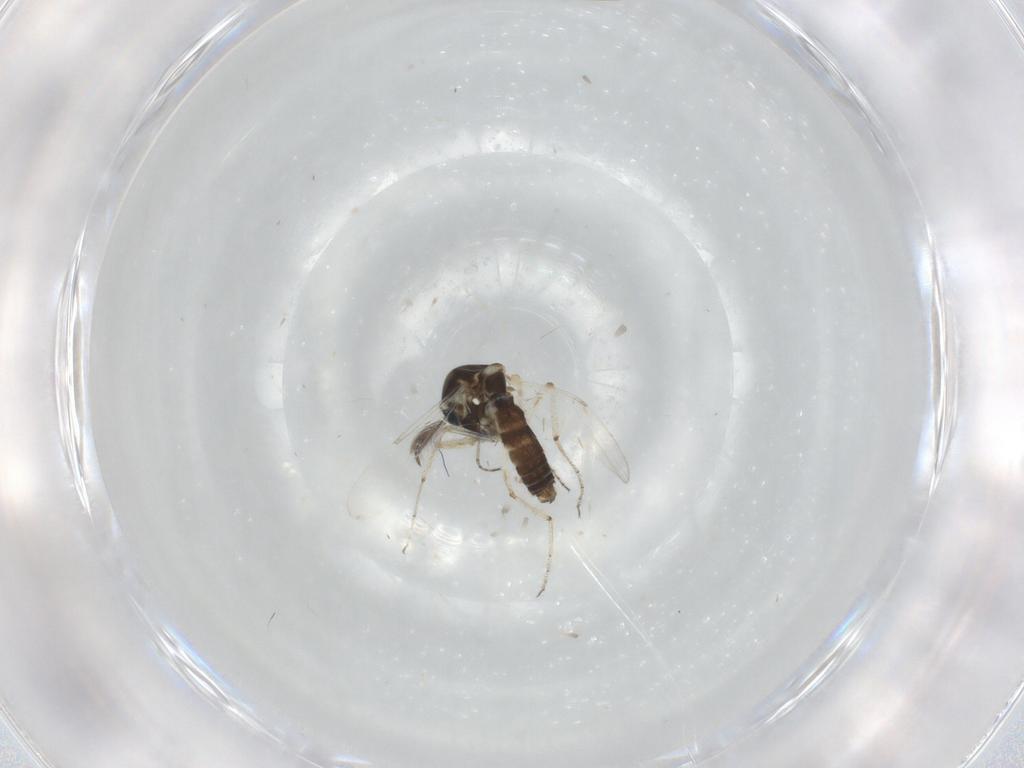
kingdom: Animalia
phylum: Arthropoda
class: Insecta
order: Diptera
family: Ceratopogonidae
